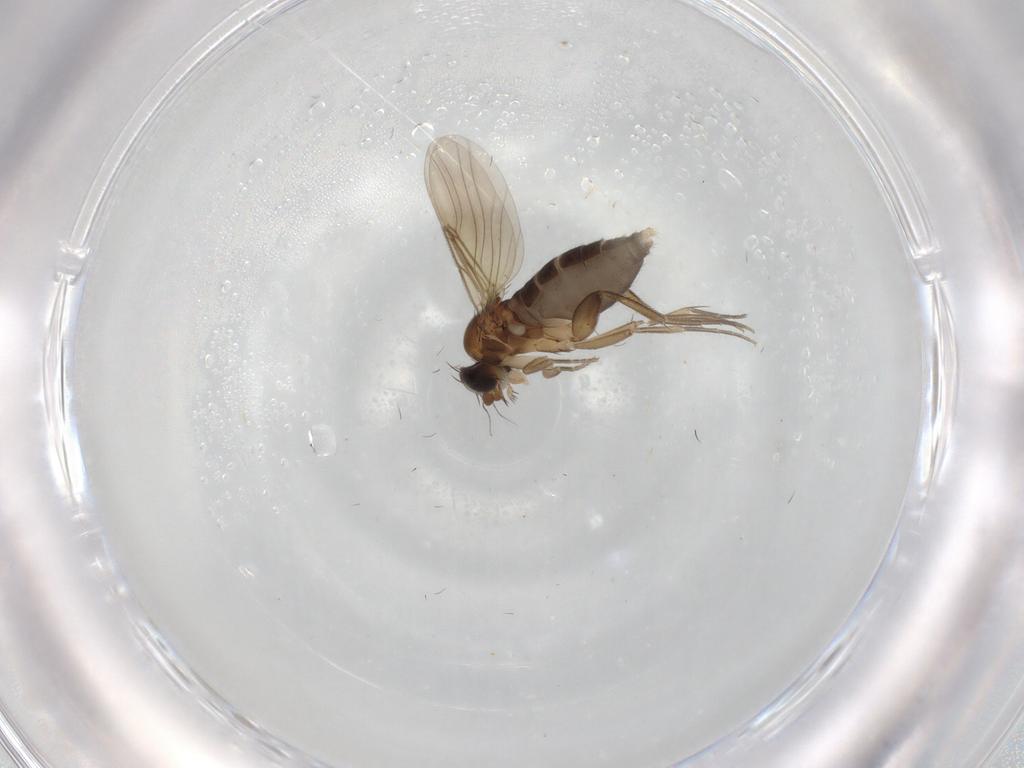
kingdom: Animalia
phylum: Arthropoda
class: Insecta
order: Diptera
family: Phoridae
